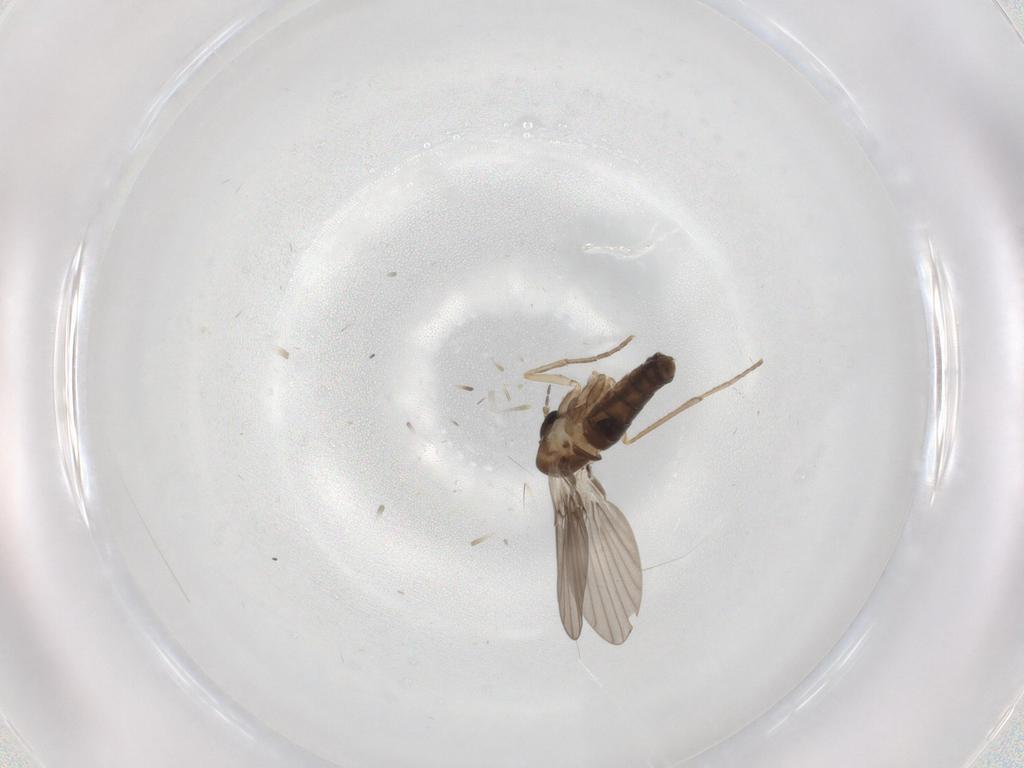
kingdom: Animalia
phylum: Arthropoda
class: Insecta
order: Diptera
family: Psychodidae
